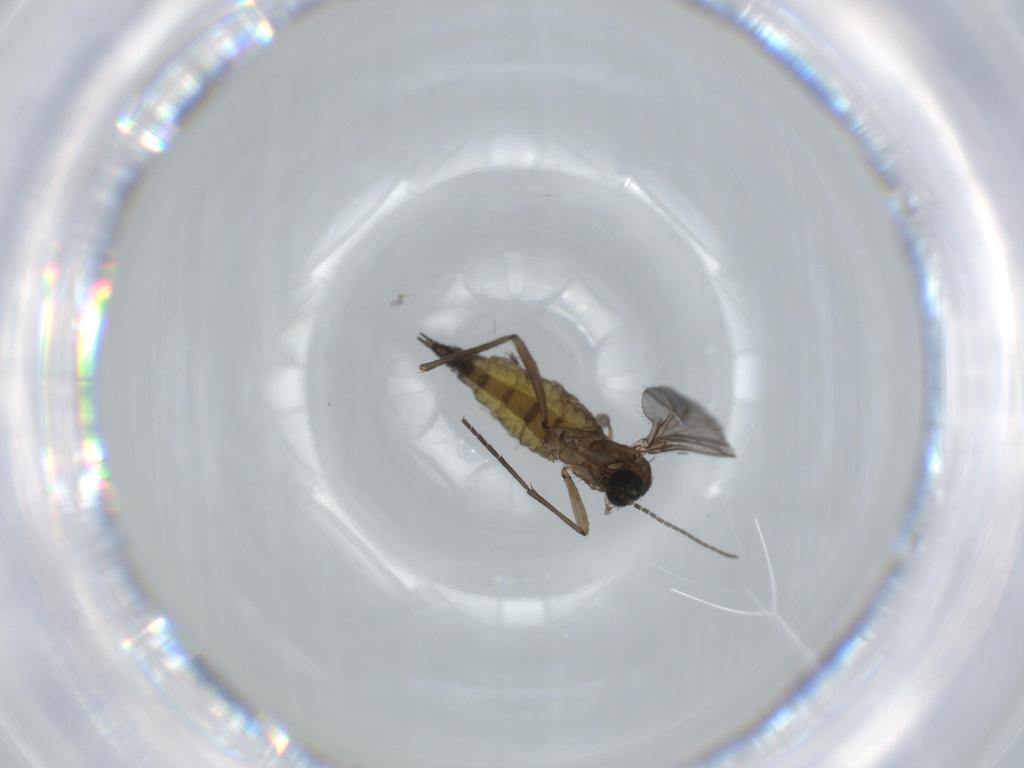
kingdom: Animalia
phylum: Arthropoda
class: Insecta
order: Diptera
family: Sciaridae
